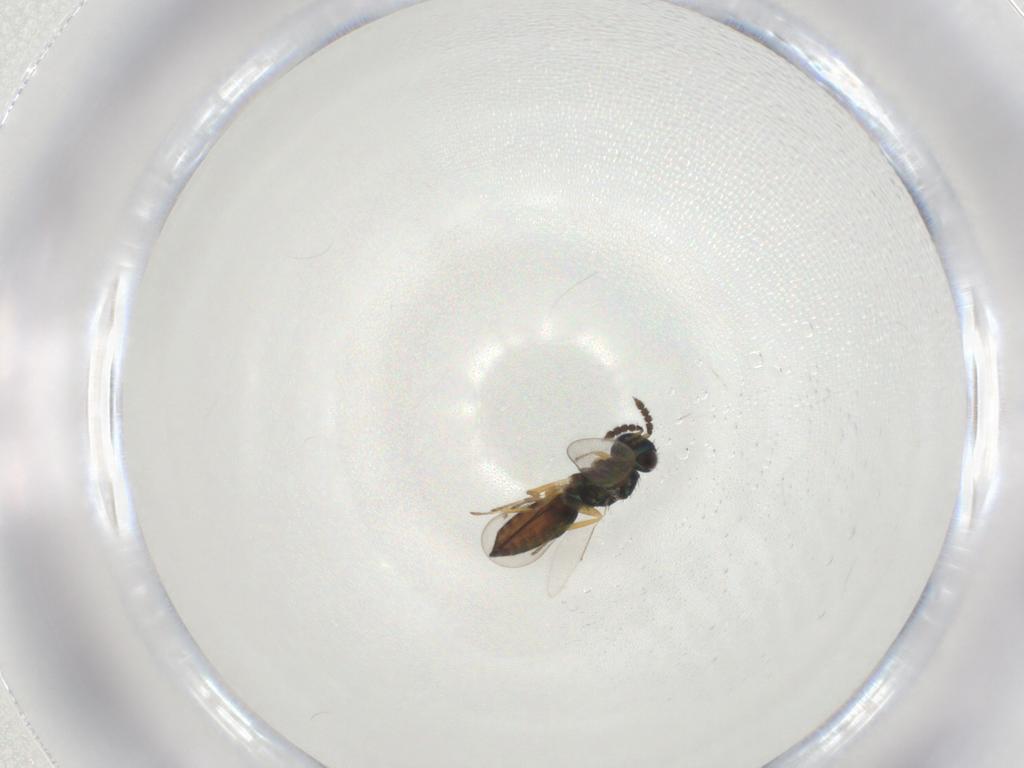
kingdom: Animalia
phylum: Arthropoda
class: Insecta
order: Hymenoptera
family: Eulophidae
